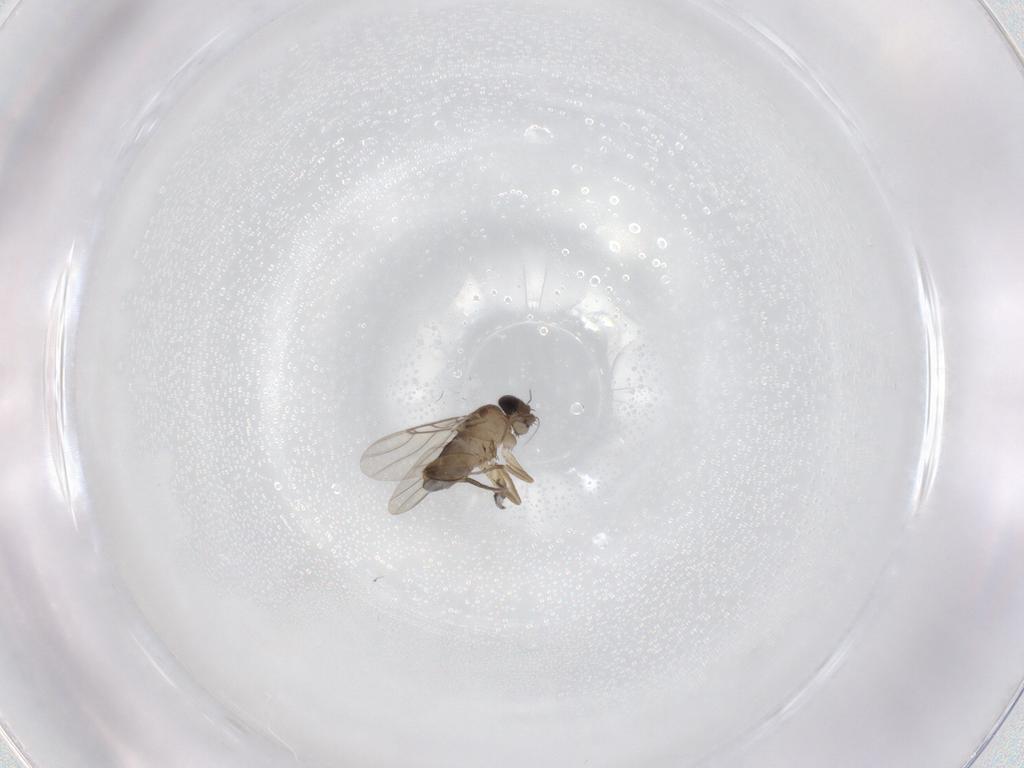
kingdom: Animalia
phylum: Arthropoda
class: Insecta
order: Diptera
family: Phoridae
